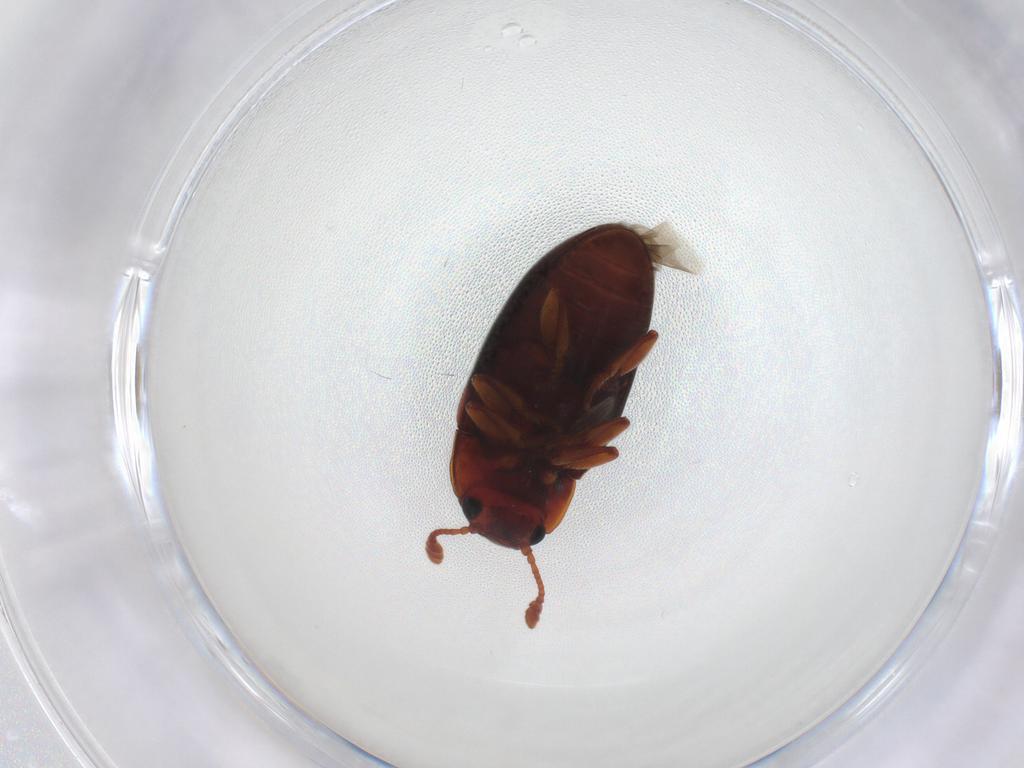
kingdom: Animalia
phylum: Arthropoda
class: Insecta
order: Coleoptera
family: Erotylidae
